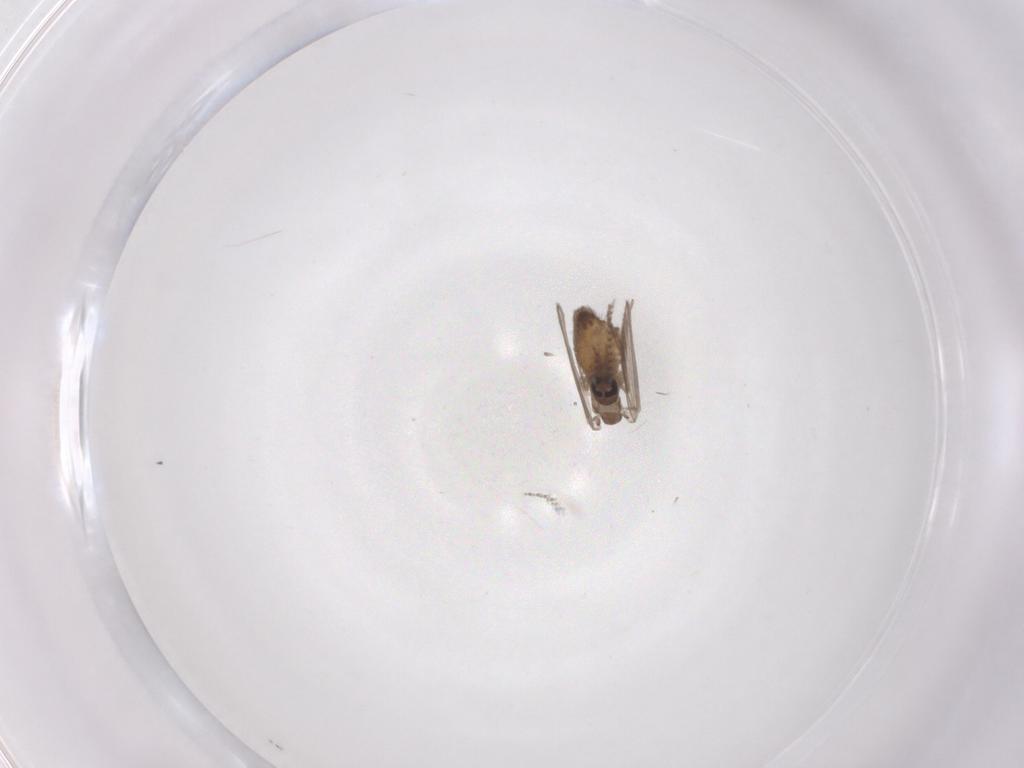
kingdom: Animalia
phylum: Arthropoda
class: Insecta
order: Diptera
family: Psychodidae
